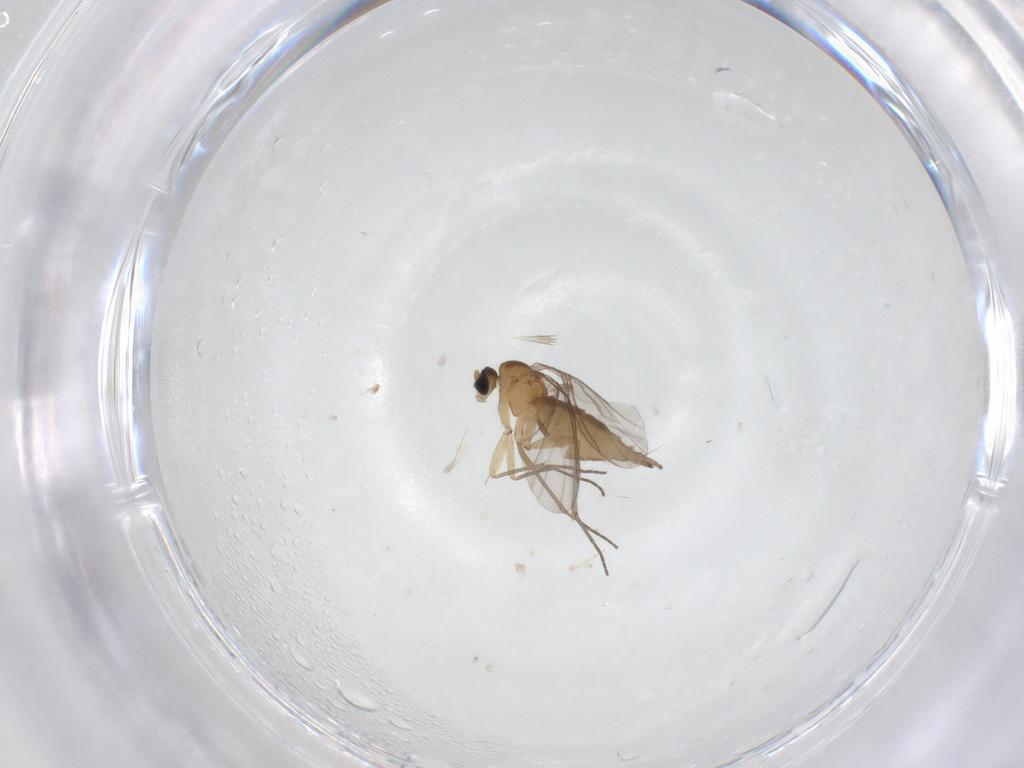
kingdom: Animalia
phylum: Arthropoda
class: Insecta
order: Diptera
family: Sciaridae
